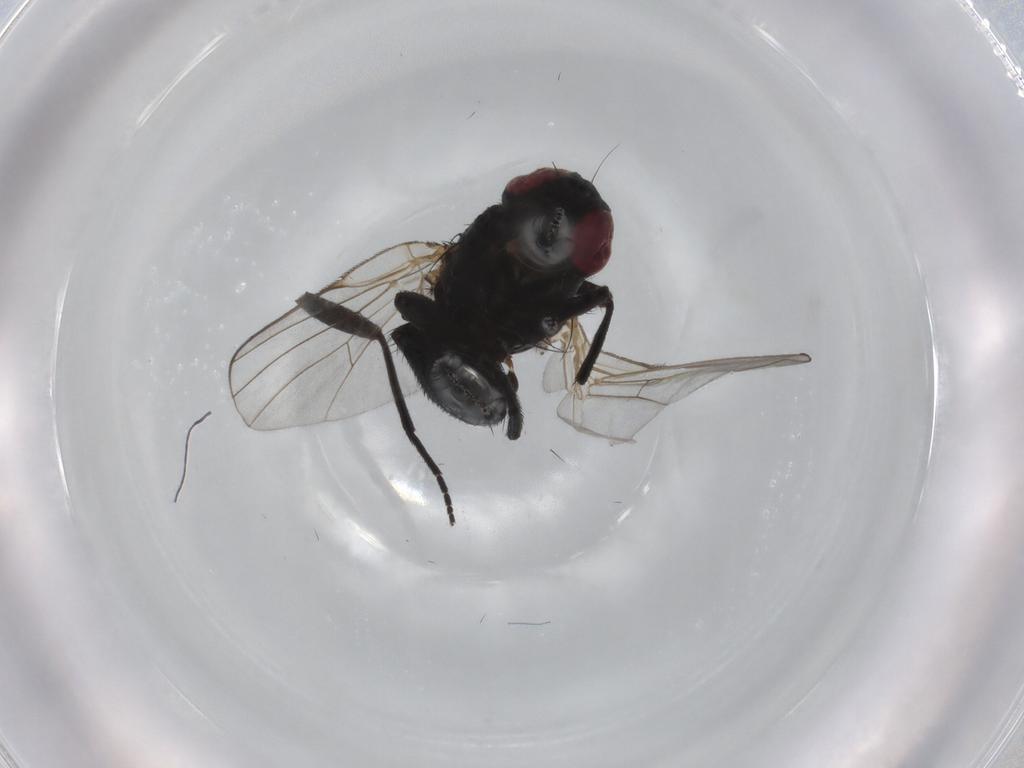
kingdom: Animalia
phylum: Arthropoda
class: Insecta
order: Diptera
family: Agromyzidae
